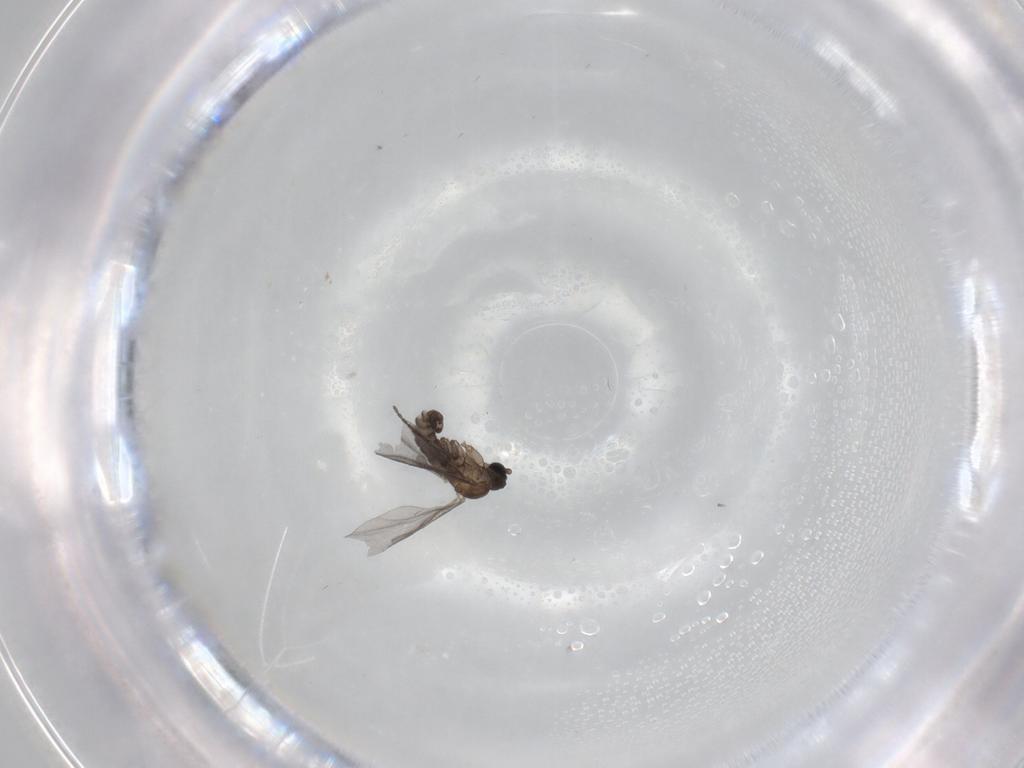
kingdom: Animalia
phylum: Arthropoda
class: Insecta
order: Diptera
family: Sciaridae
